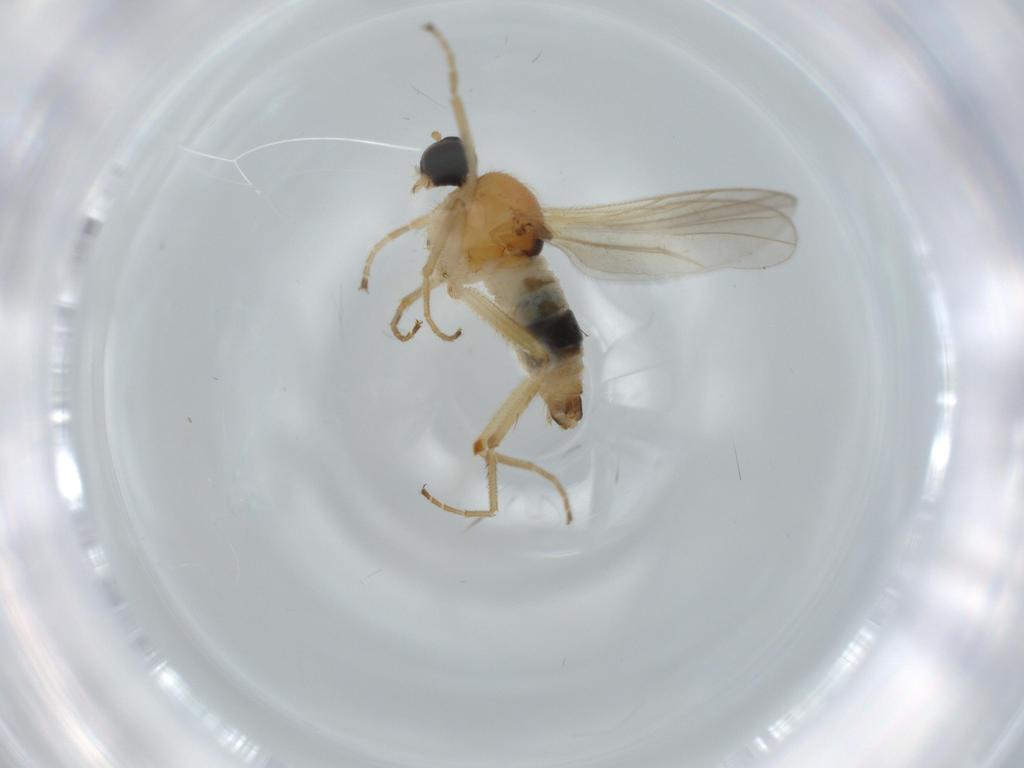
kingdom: Animalia
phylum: Arthropoda
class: Insecta
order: Diptera
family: Hybotidae
